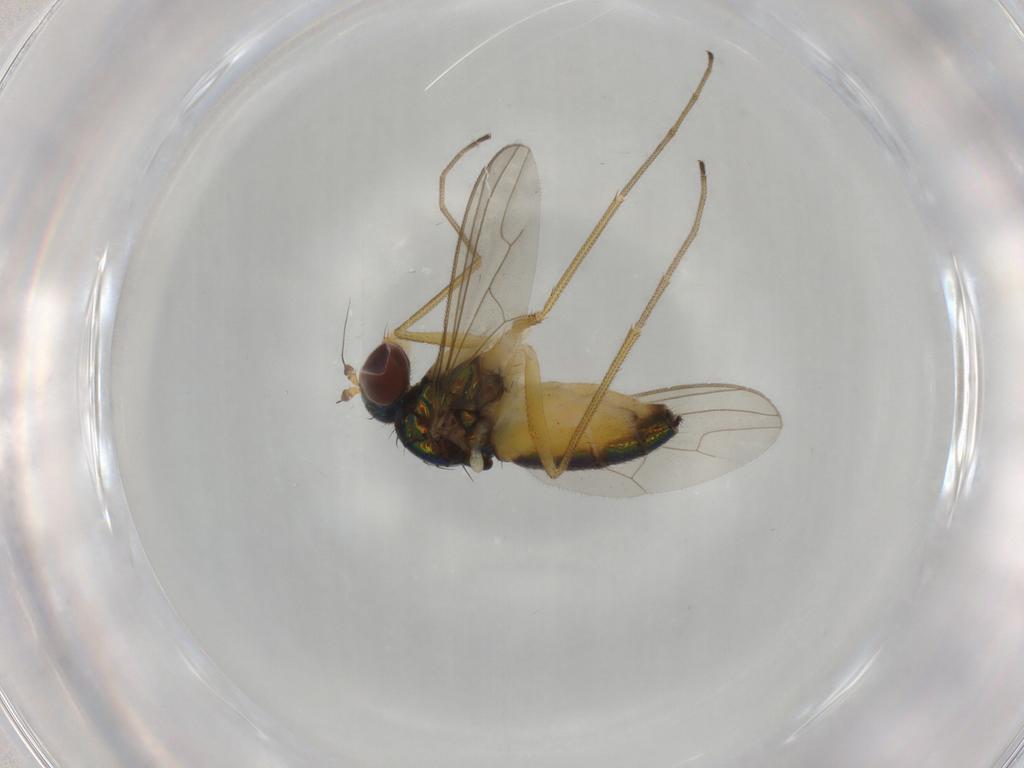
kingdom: Animalia
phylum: Arthropoda
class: Insecta
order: Diptera
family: Dolichopodidae
